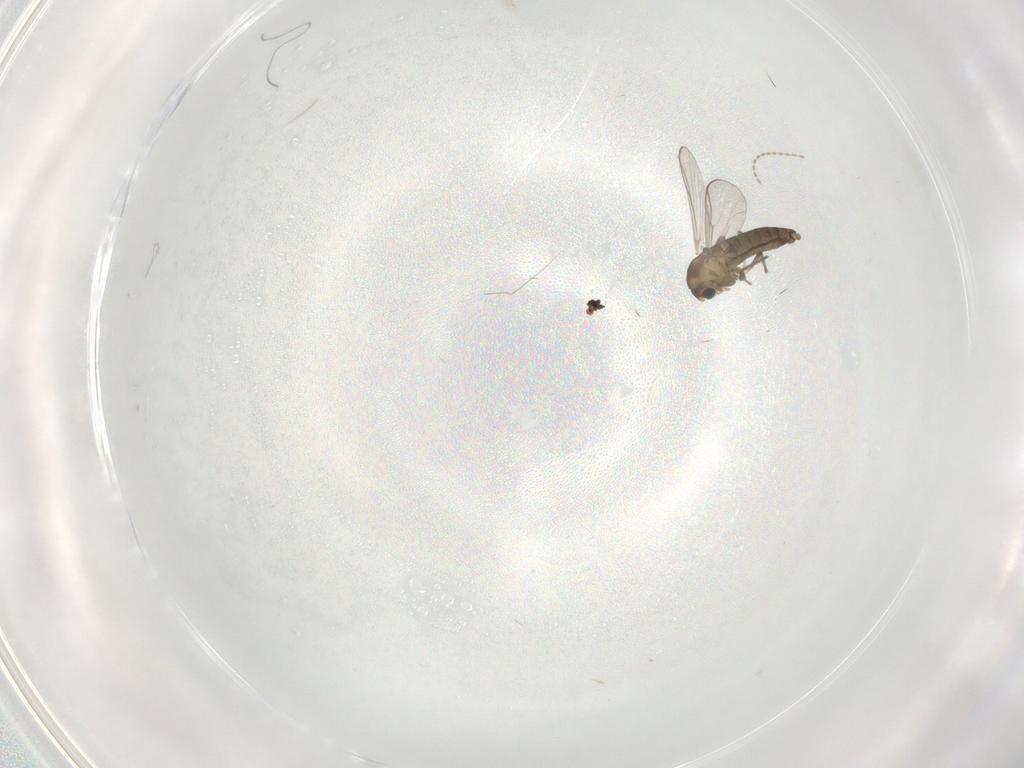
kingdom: Animalia
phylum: Arthropoda
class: Insecta
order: Diptera
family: Chironomidae
